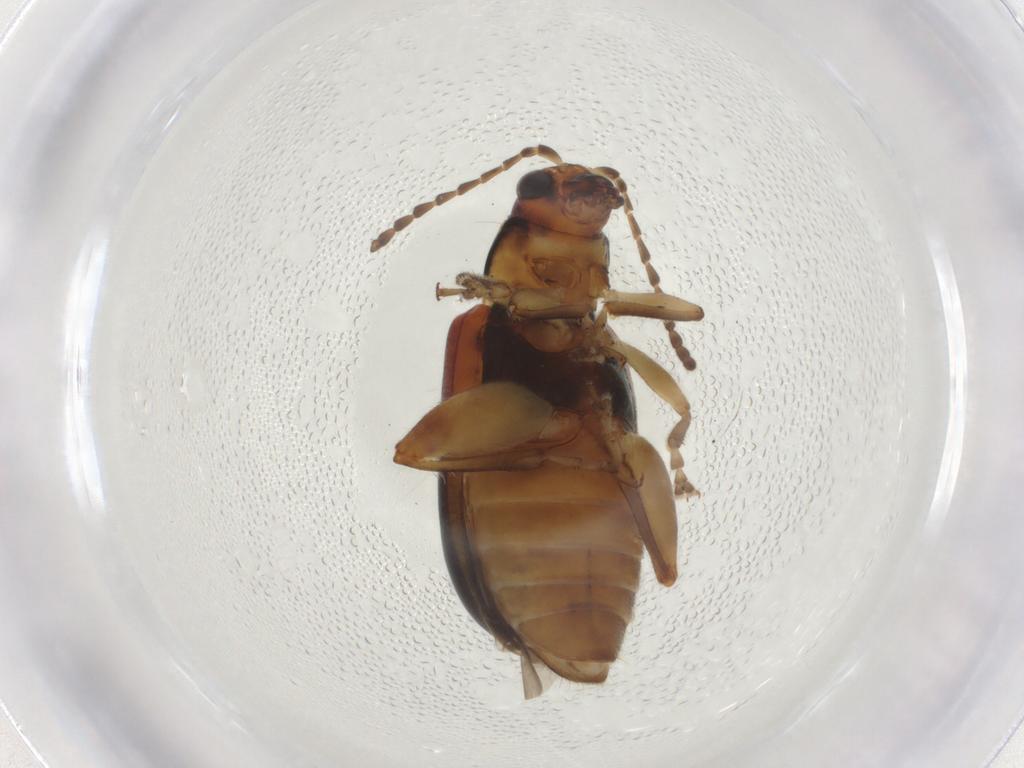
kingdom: Animalia
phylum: Arthropoda
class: Insecta
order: Coleoptera
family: Chrysomelidae
